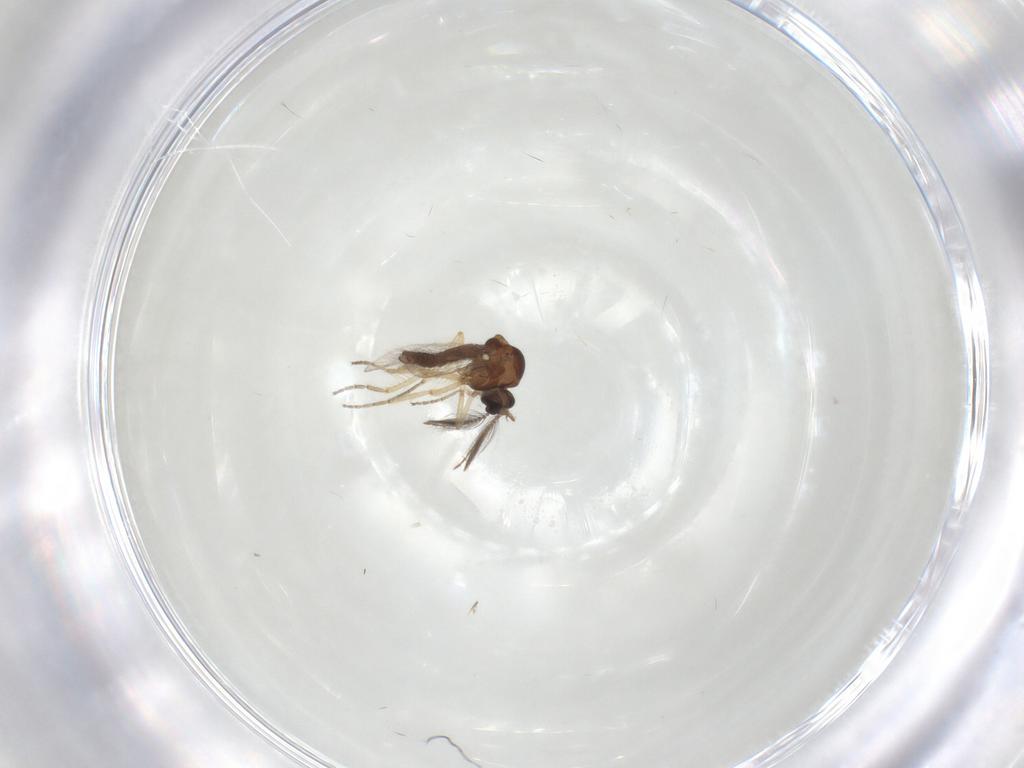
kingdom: Animalia
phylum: Arthropoda
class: Insecta
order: Diptera
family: Ceratopogonidae
